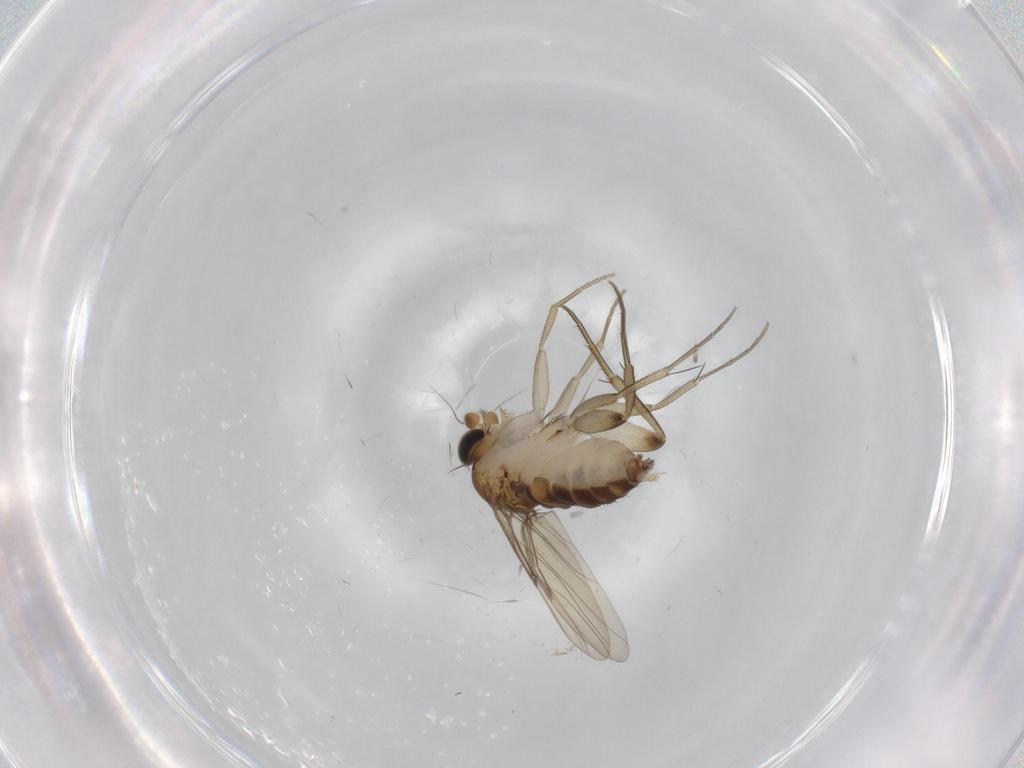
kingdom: Animalia
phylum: Arthropoda
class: Insecta
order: Diptera
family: Phoridae
